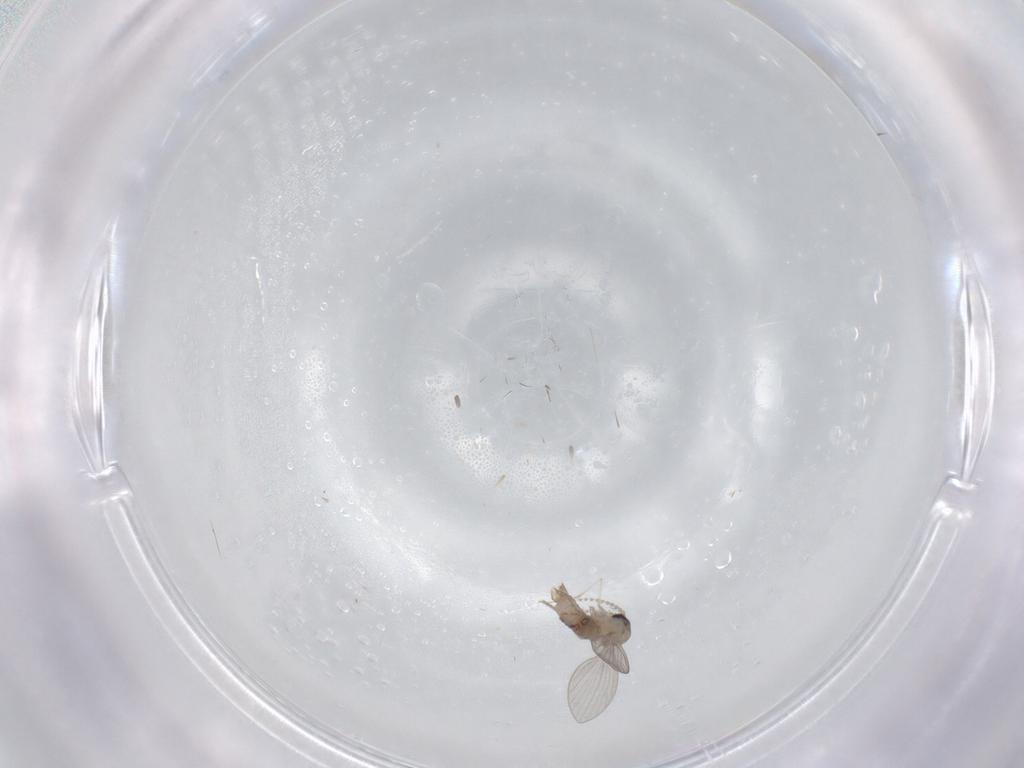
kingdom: Animalia
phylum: Arthropoda
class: Insecta
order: Diptera
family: Psychodidae
